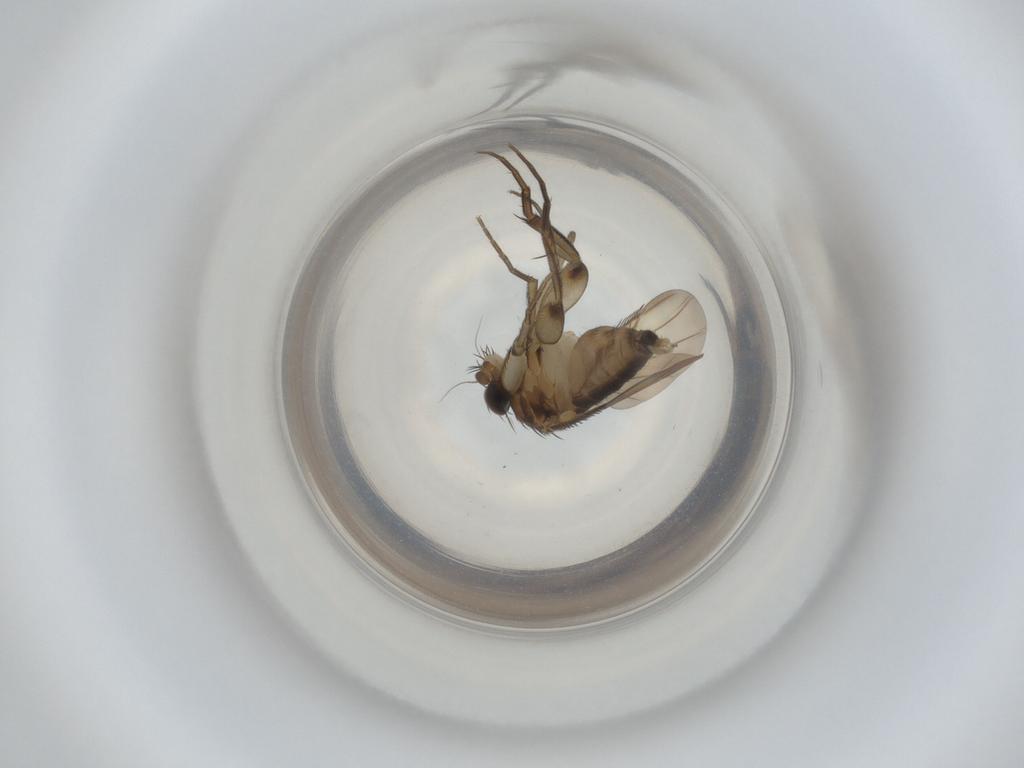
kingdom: Animalia
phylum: Arthropoda
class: Insecta
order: Diptera
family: Phoridae
